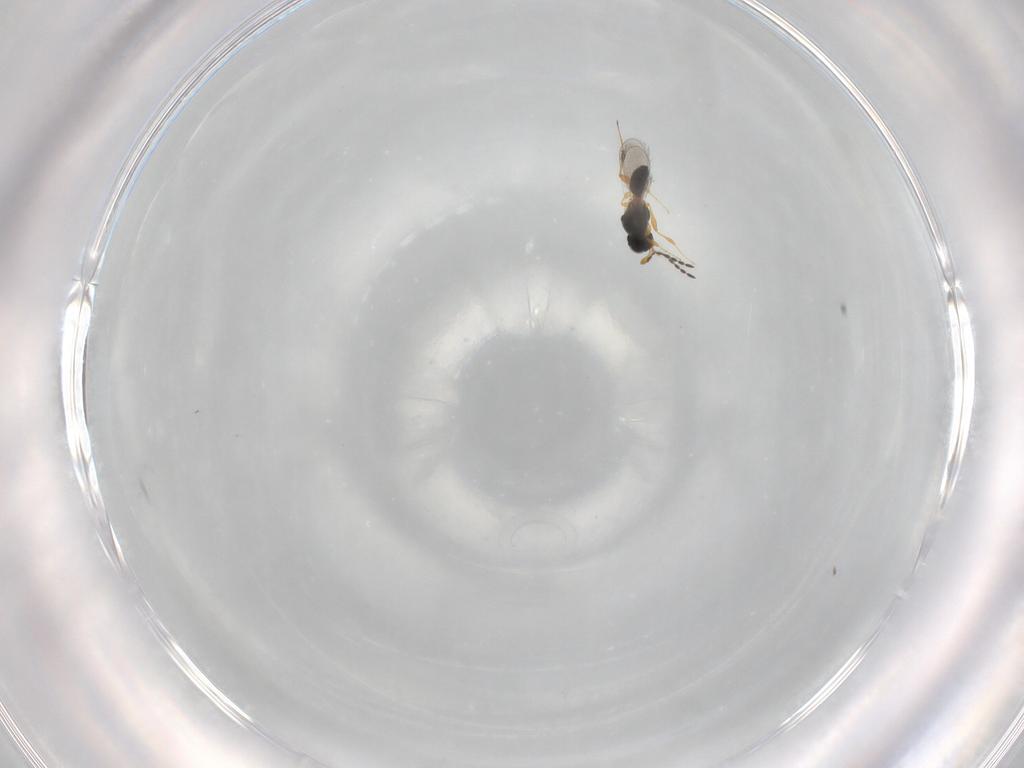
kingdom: Animalia
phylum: Arthropoda
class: Insecta
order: Hymenoptera
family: Platygastridae
